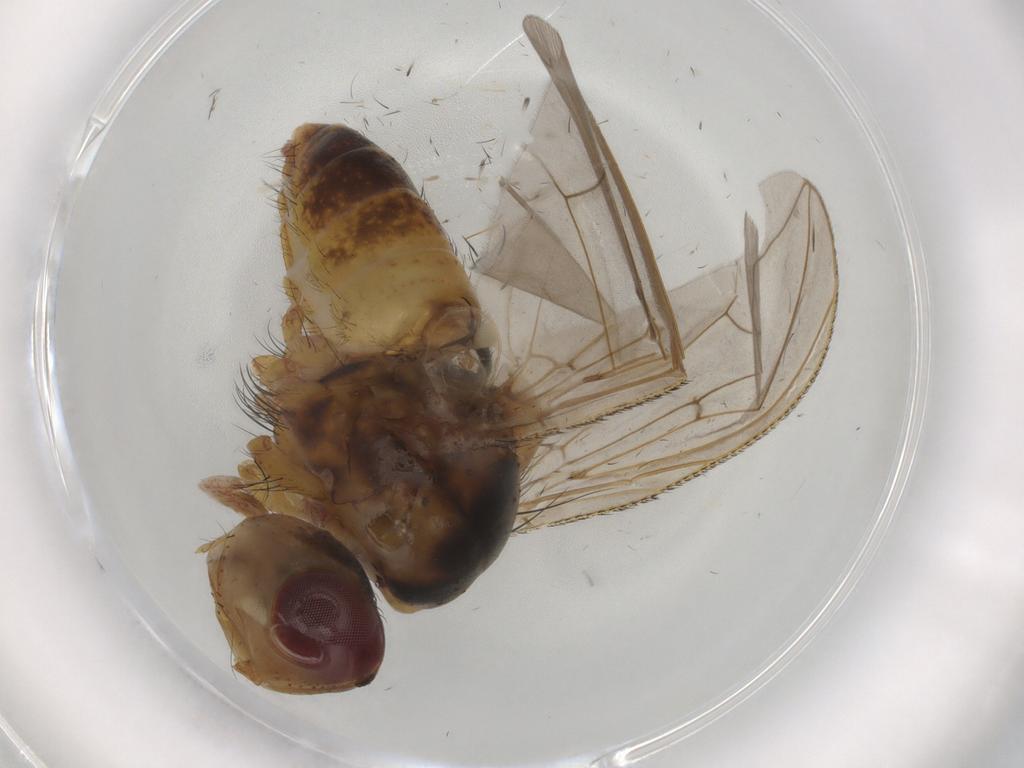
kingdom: Animalia
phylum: Arthropoda
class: Insecta
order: Diptera
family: Tachinidae
